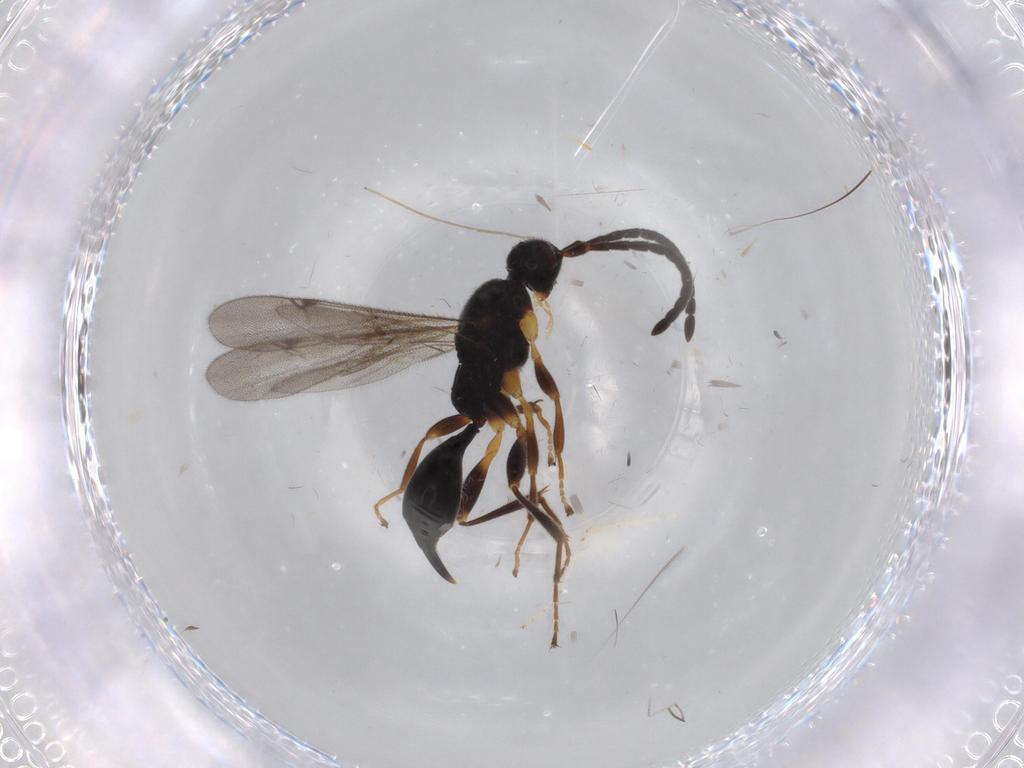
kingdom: Animalia
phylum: Arthropoda
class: Insecta
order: Hymenoptera
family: Proctotrupidae
